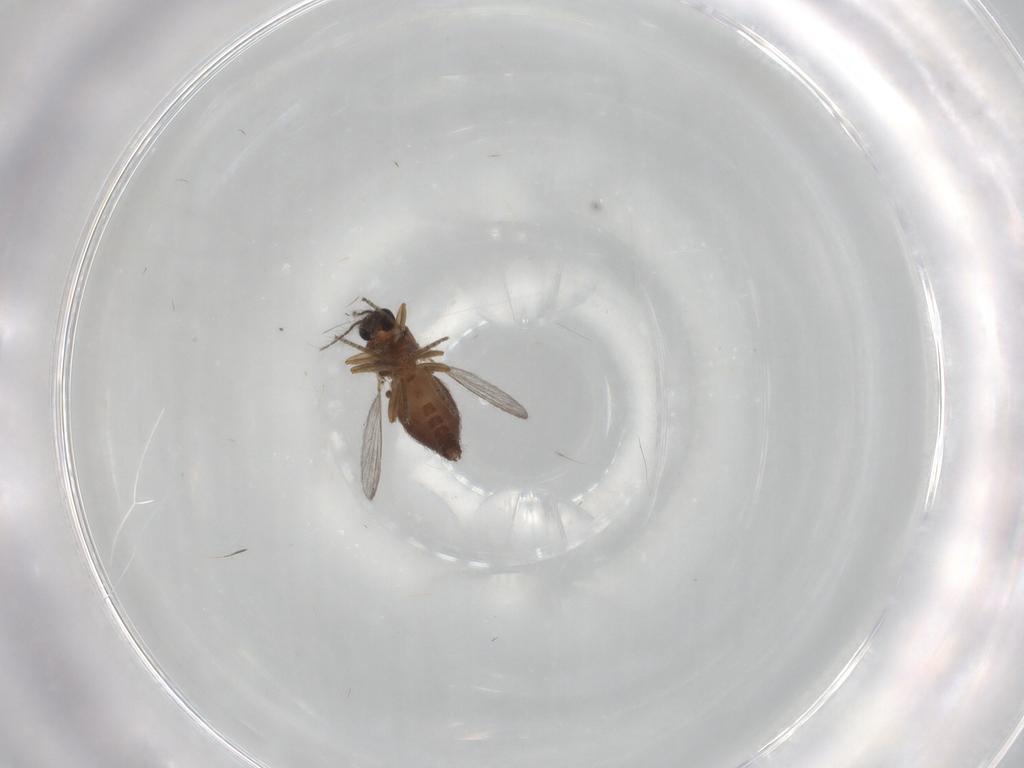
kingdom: Animalia
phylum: Arthropoda
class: Insecta
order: Diptera
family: Ceratopogonidae
